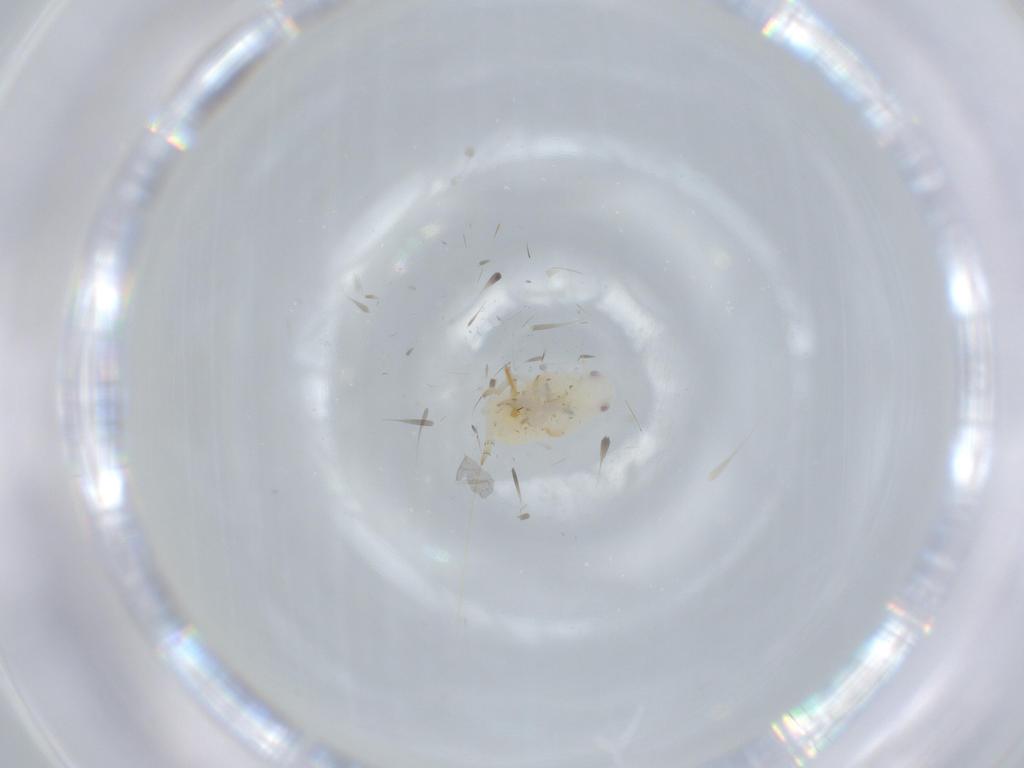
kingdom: Animalia
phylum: Arthropoda
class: Insecta
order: Hemiptera
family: Flatidae
